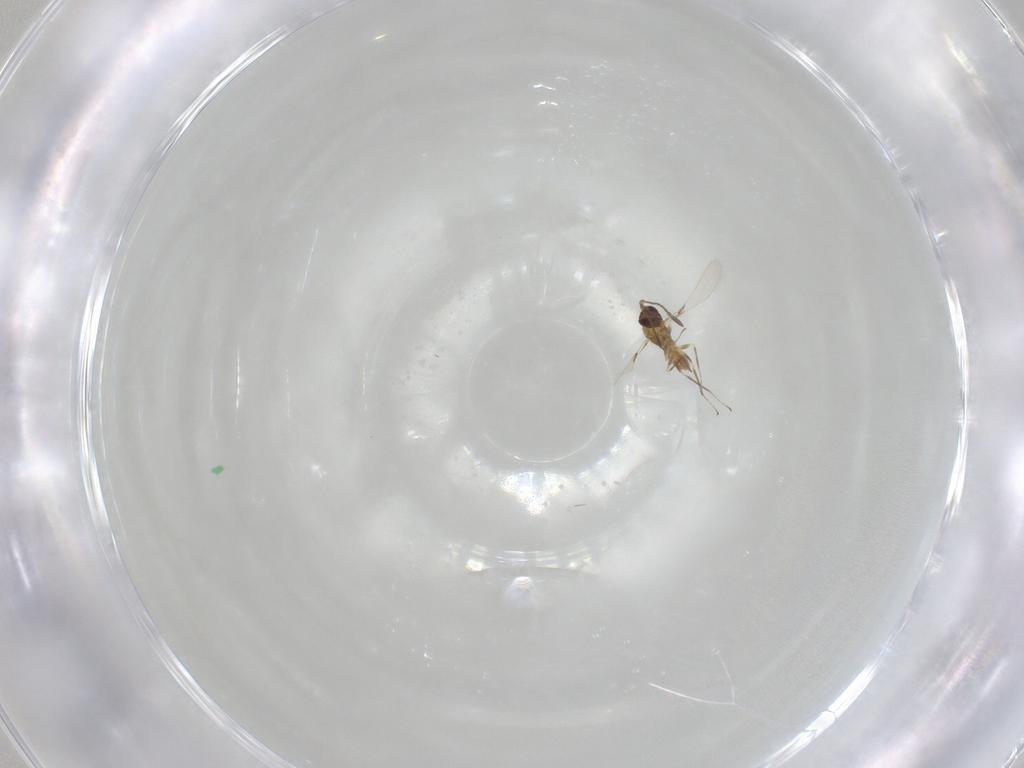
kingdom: Animalia
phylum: Arthropoda
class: Insecta
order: Hymenoptera
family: Mymaridae
